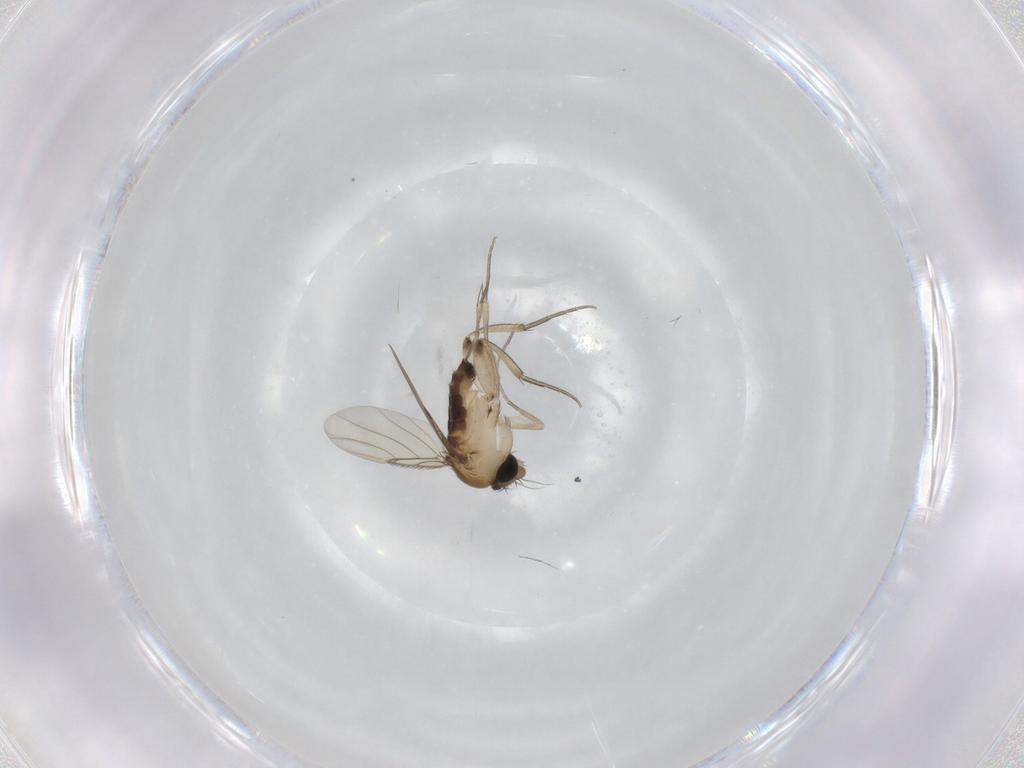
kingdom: Animalia
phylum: Arthropoda
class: Insecta
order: Diptera
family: Phoridae
